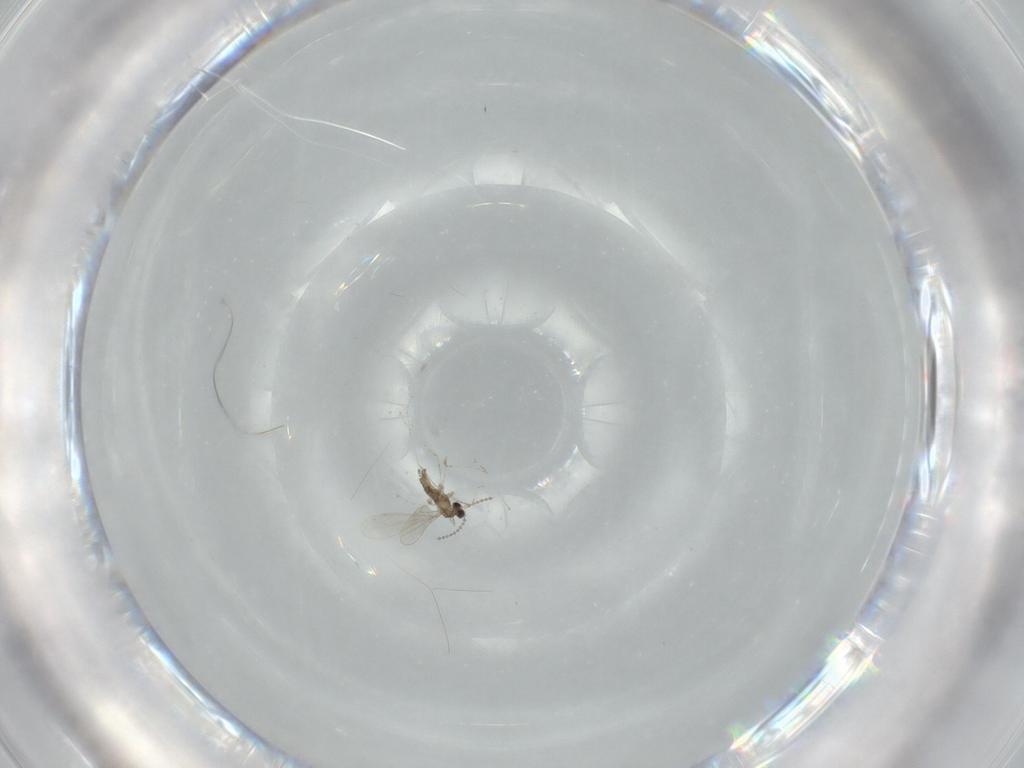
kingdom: Animalia
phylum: Arthropoda
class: Insecta
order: Diptera
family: Cecidomyiidae
